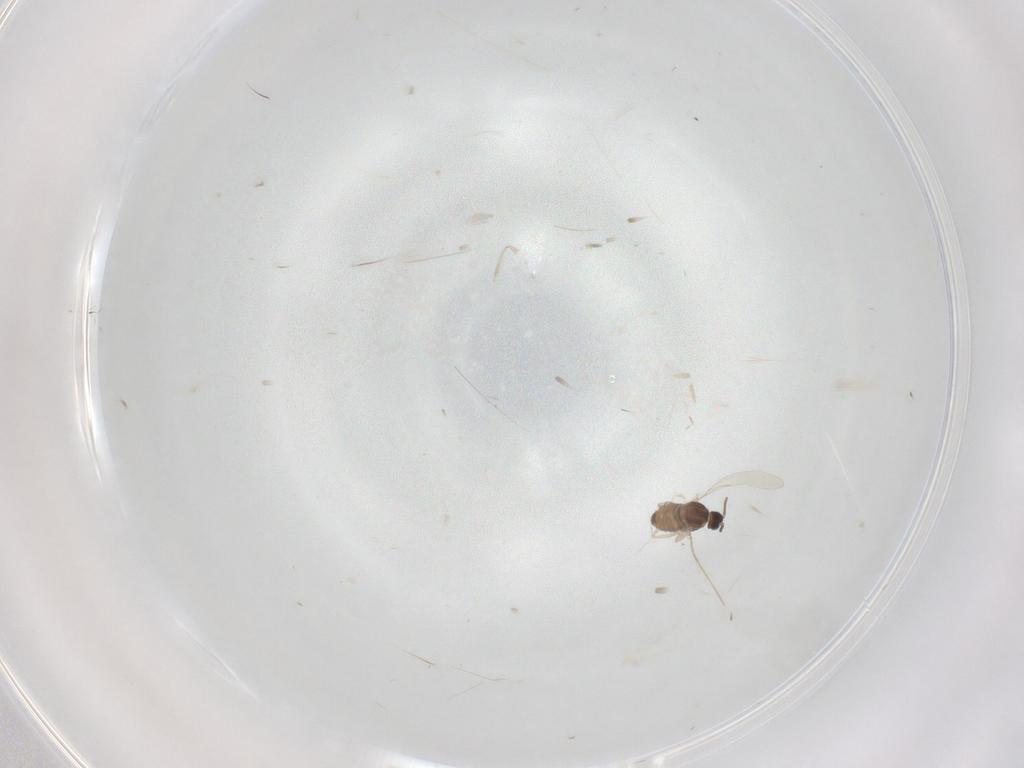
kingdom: Animalia
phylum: Arthropoda
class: Insecta
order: Diptera
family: Cecidomyiidae
